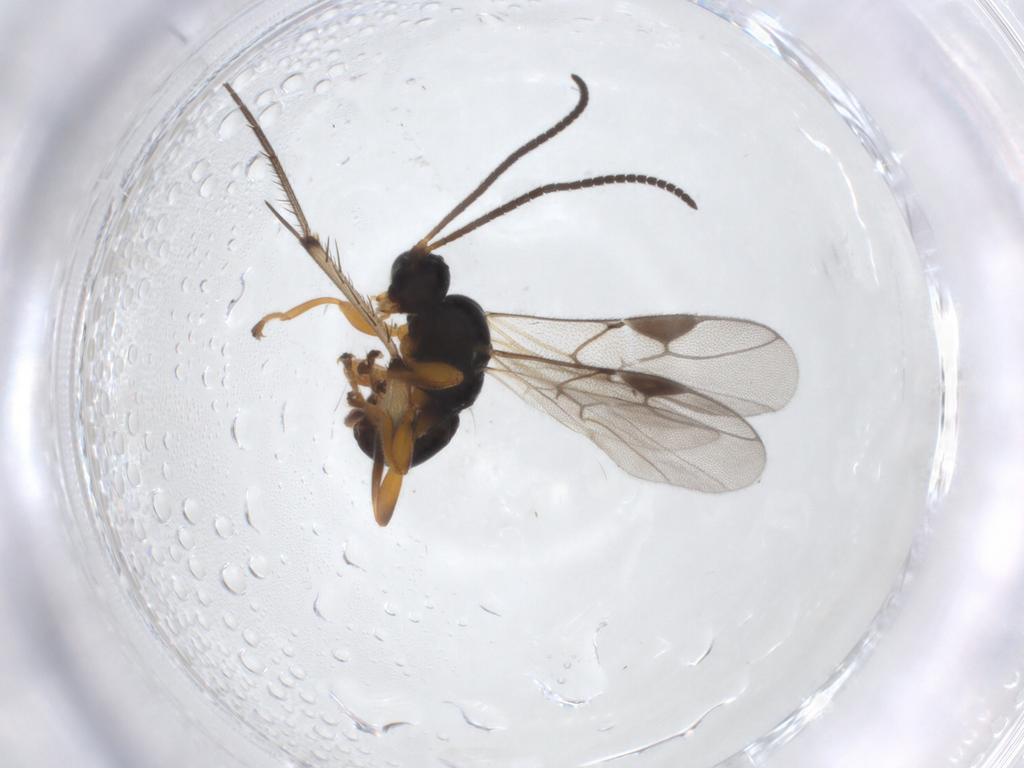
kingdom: Animalia
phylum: Arthropoda
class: Insecta
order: Hymenoptera
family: Braconidae
